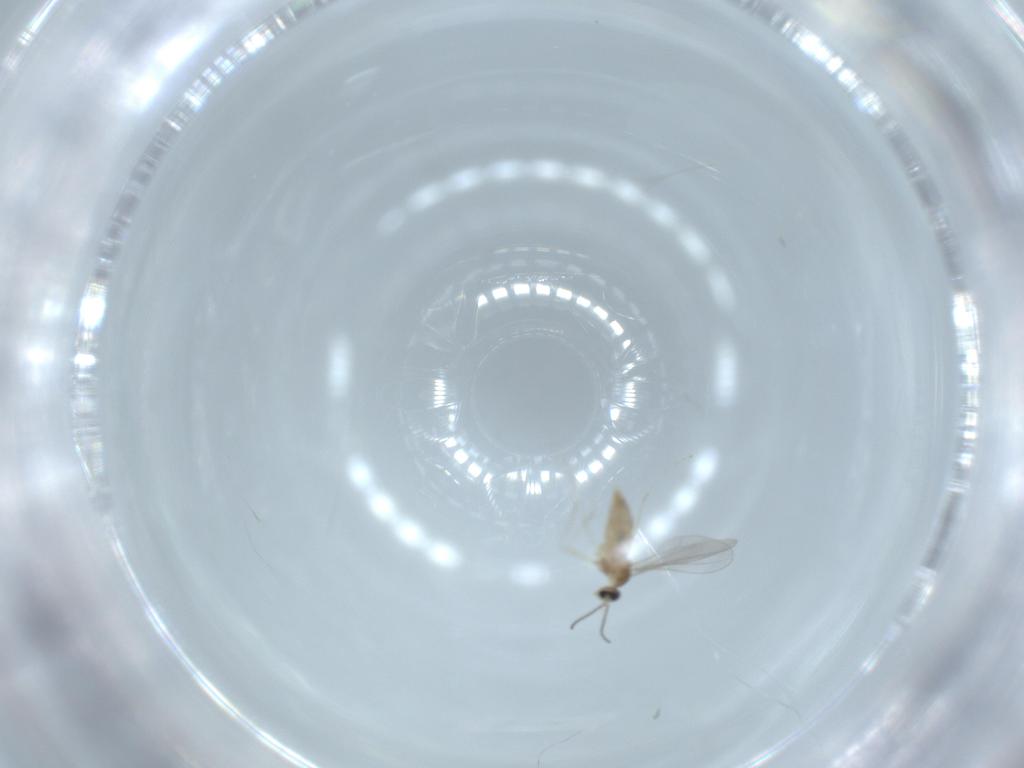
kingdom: Animalia
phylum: Arthropoda
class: Insecta
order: Diptera
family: Cecidomyiidae
